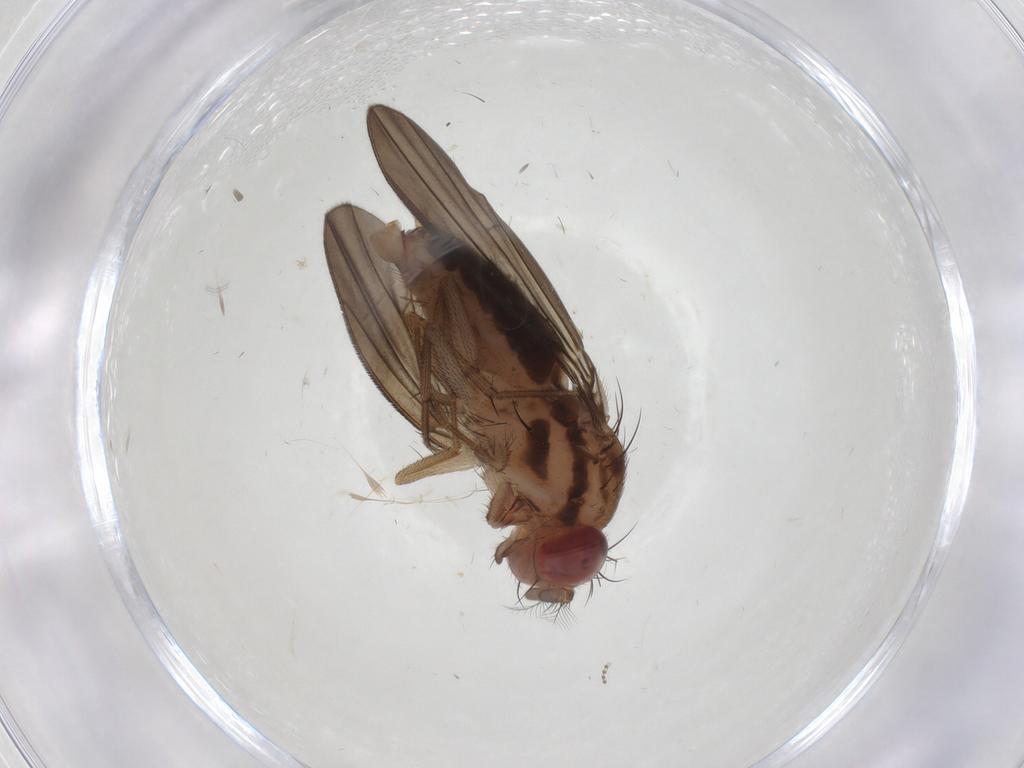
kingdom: Animalia
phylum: Arthropoda
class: Insecta
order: Diptera
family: Drosophilidae
